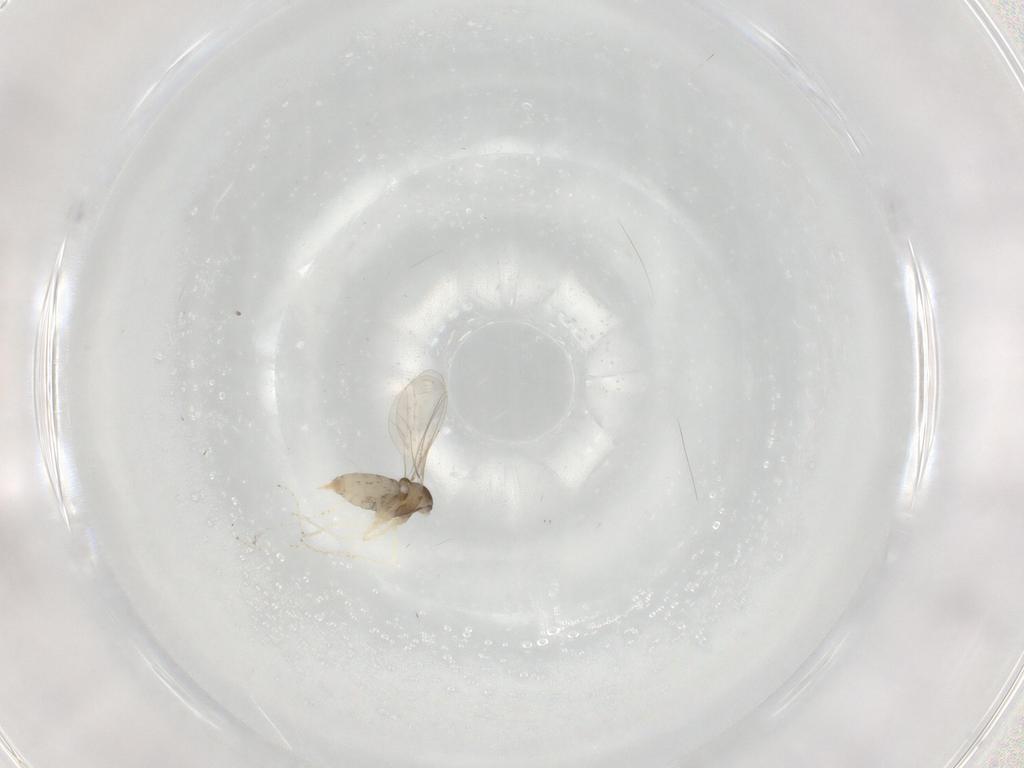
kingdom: Animalia
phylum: Arthropoda
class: Insecta
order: Diptera
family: Cecidomyiidae
